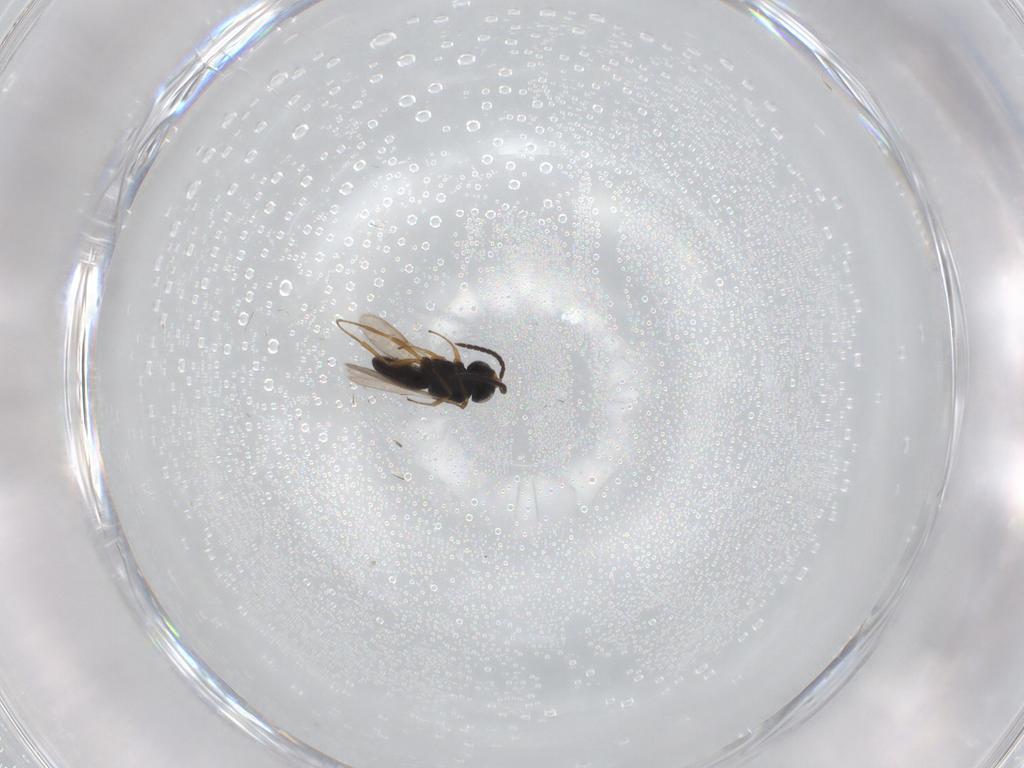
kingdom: Animalia
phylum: Arthropoda
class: Insecta
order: Hymenoptera
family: Scelionidae
